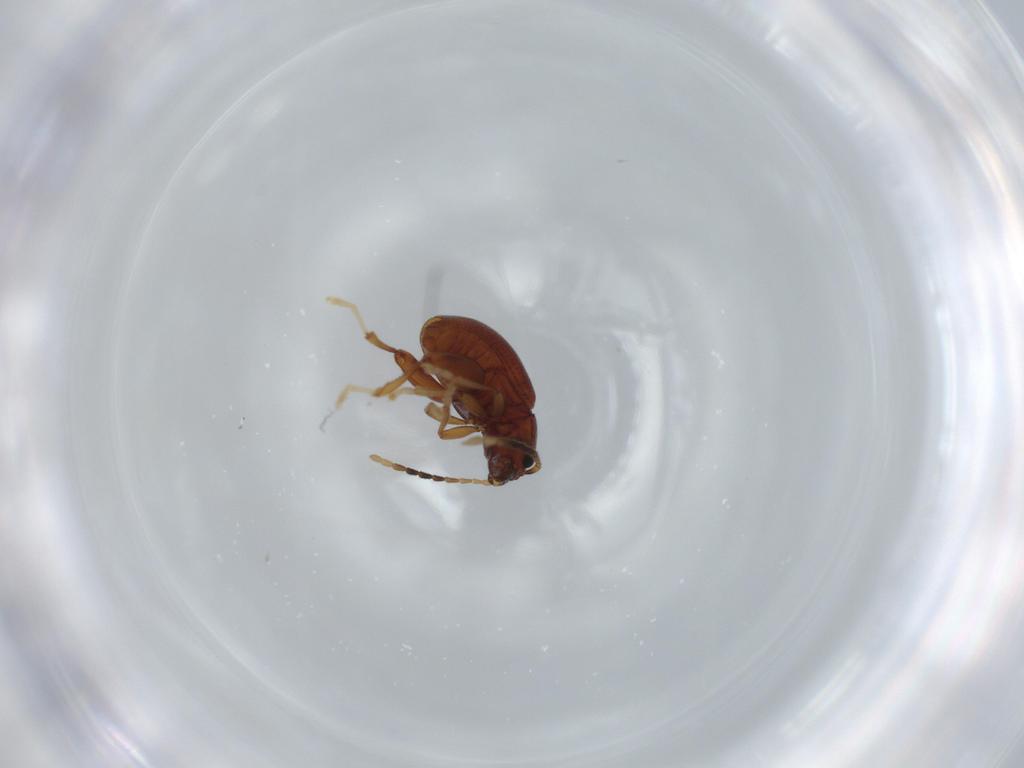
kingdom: Animalia
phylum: Arthropoda
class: Insecta
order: Coleoptera
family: Chrysomelidae
